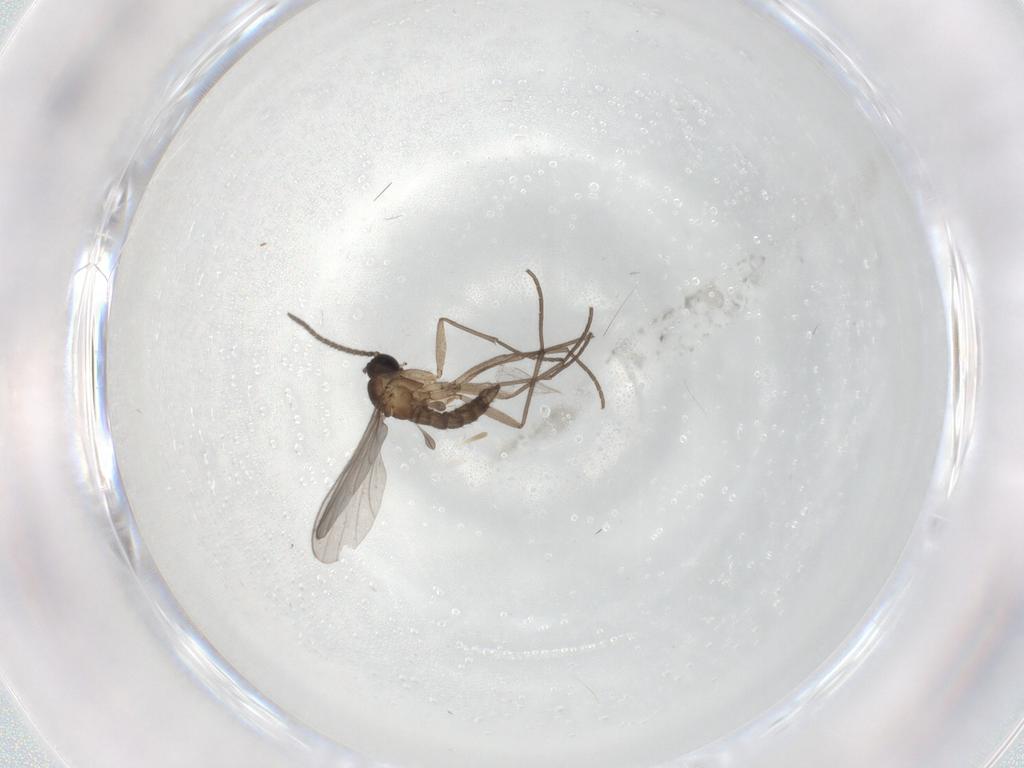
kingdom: Animalia
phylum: Arthropoda
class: Insecta
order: Diptera
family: Sciaridae
